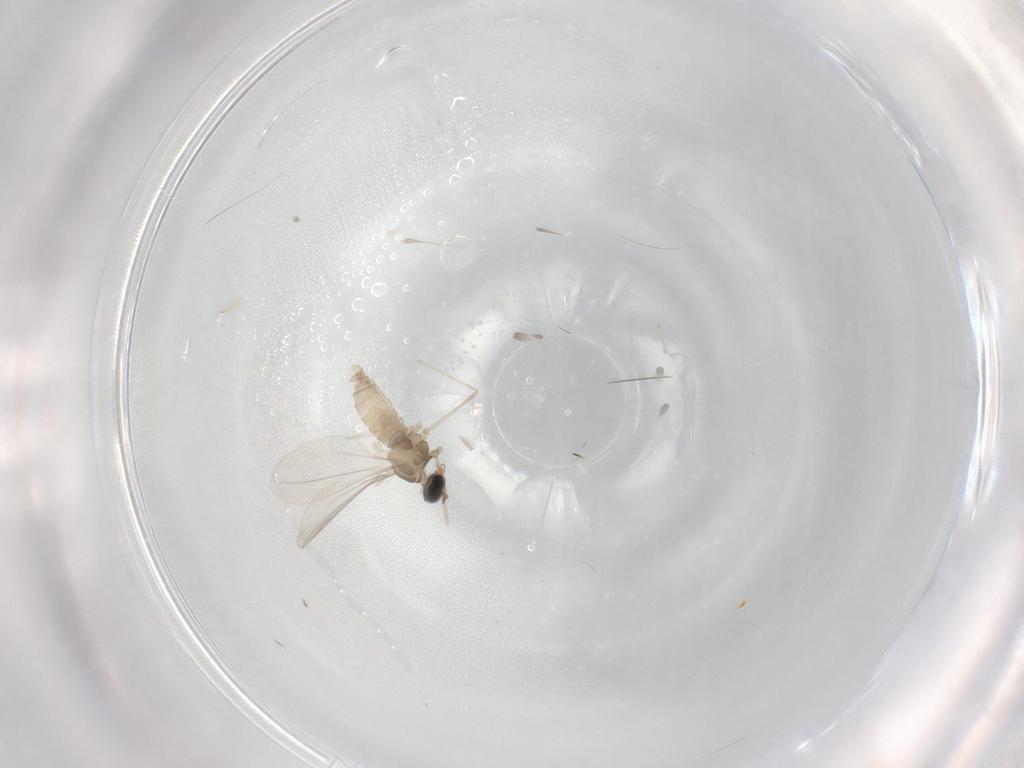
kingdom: Animalia
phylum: Arthropoda
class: Insecta
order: Diptera
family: Cecidomyiidae
